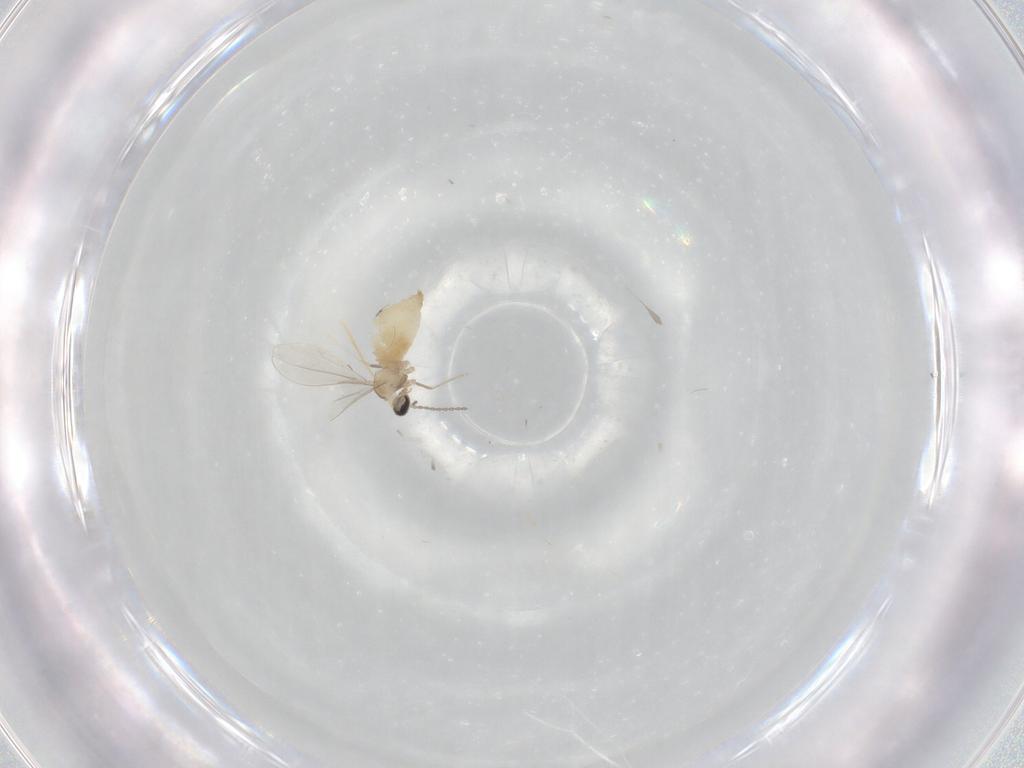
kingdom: Animalia
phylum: Arthropoda
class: Insecta
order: Diptera
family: Cecidomyiidae
